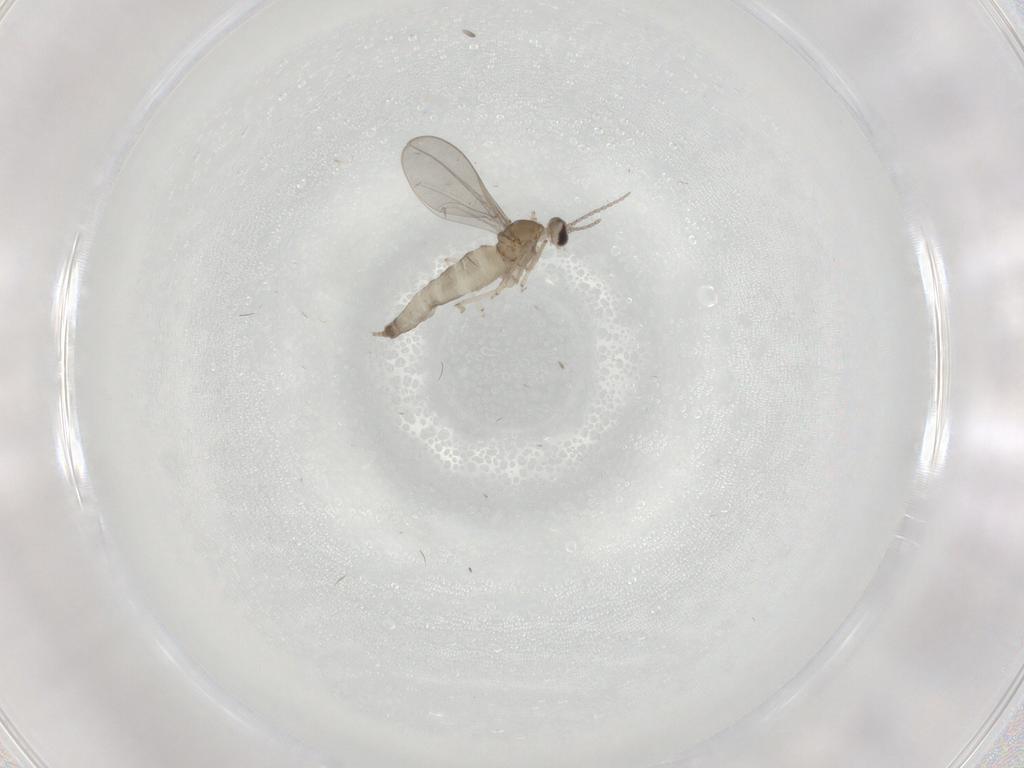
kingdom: Animalia
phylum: Arthropoda
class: Insecta
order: Diptera
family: Cecidomyiidae
